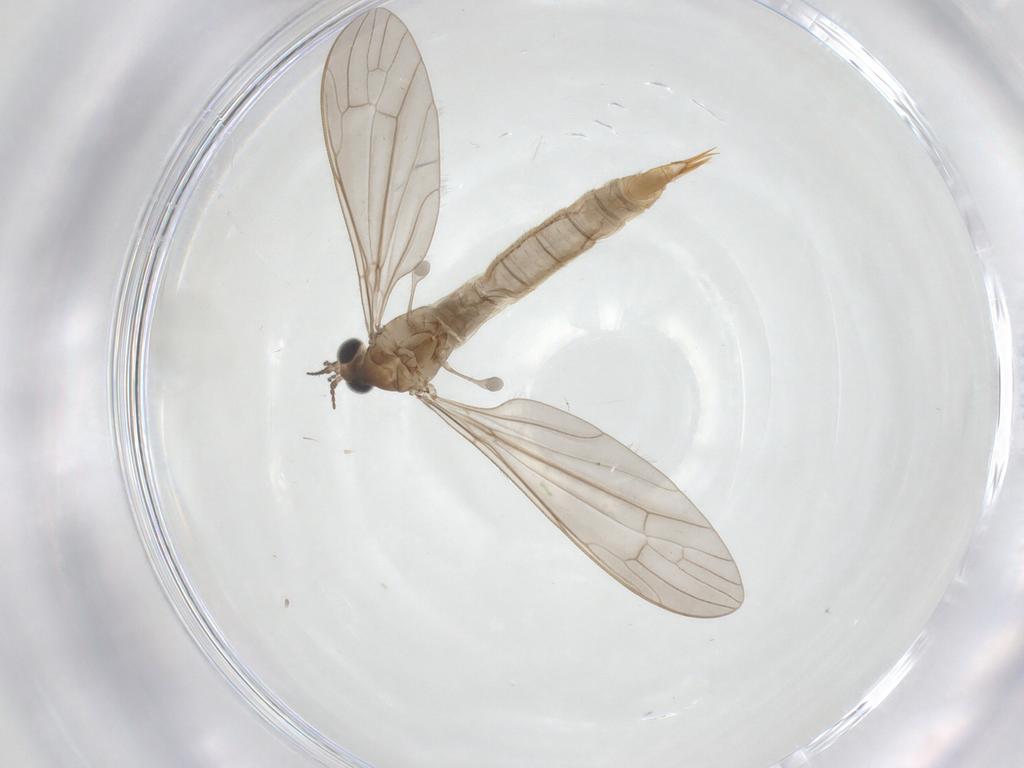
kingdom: Animalia
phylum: Arthropoda
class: Insecta
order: Diptera
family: Limoniidae
